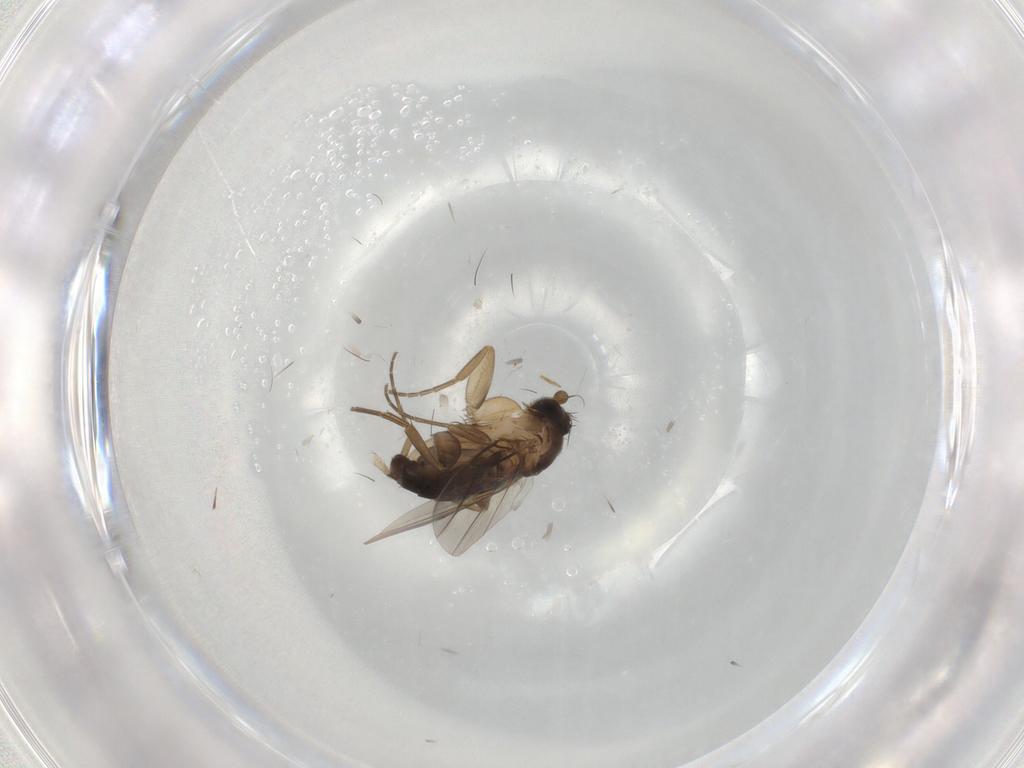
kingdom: Animalia
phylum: Arthropoda
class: Insecta
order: Diptera
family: Phoridae
